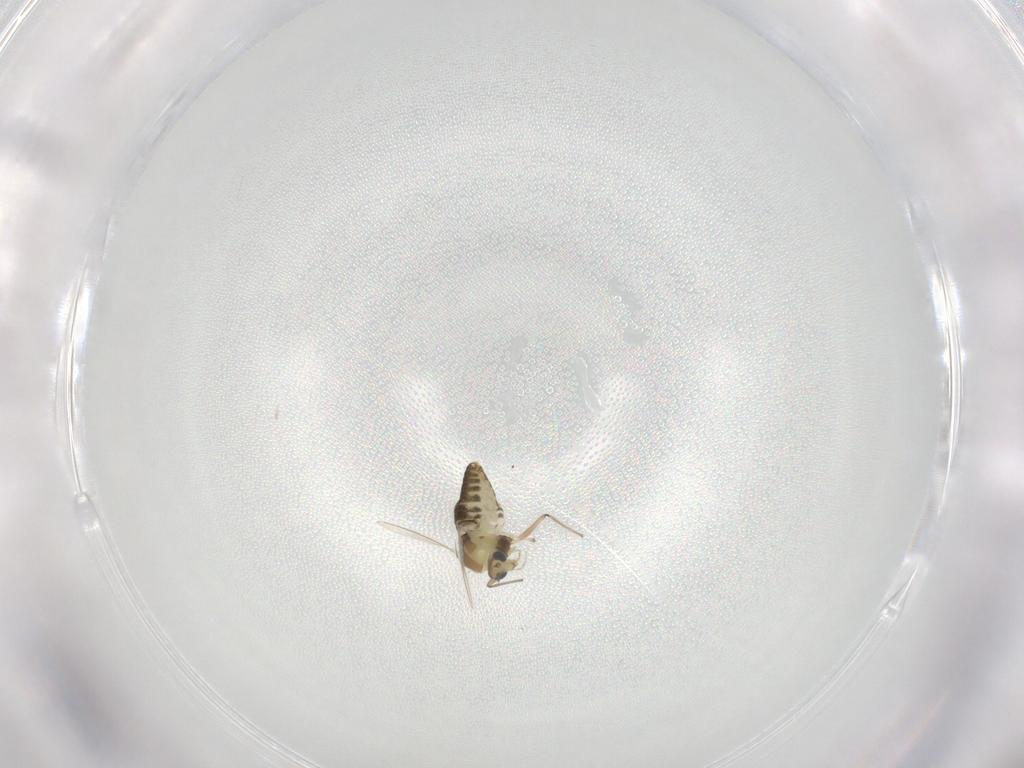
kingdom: Animalia
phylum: Arthropoda
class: Insecta
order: Diptera
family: Chironomidae
